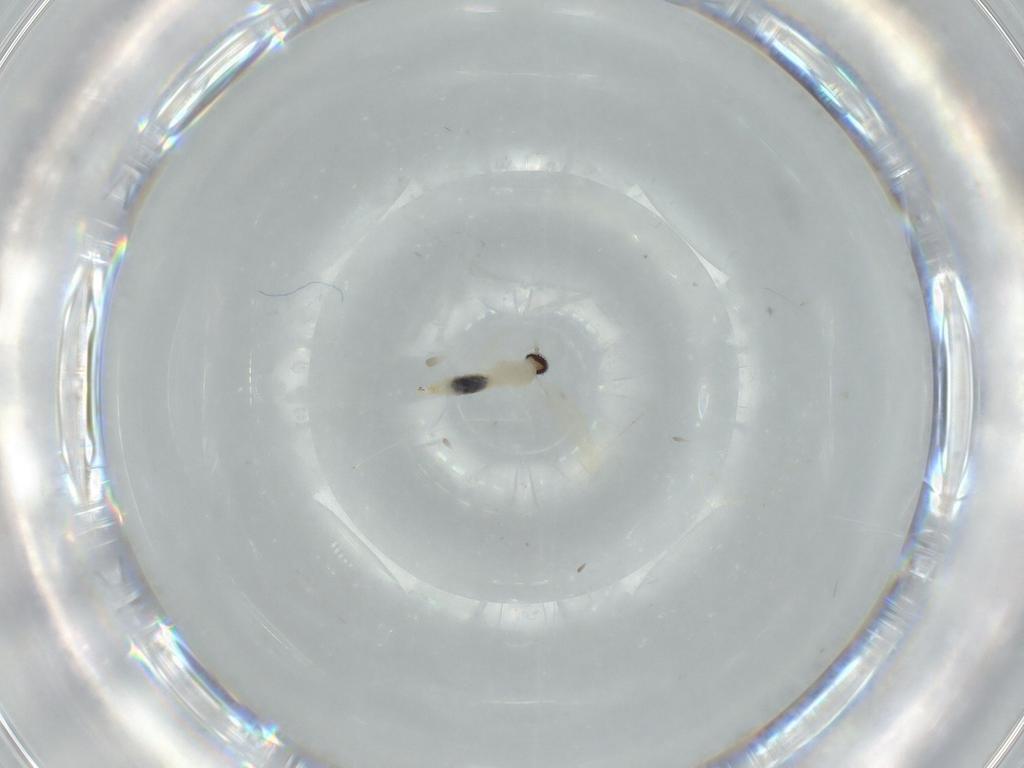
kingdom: Animalia
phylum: Arthropoda
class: Insecta
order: Diptera
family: Cecidomyiidae
